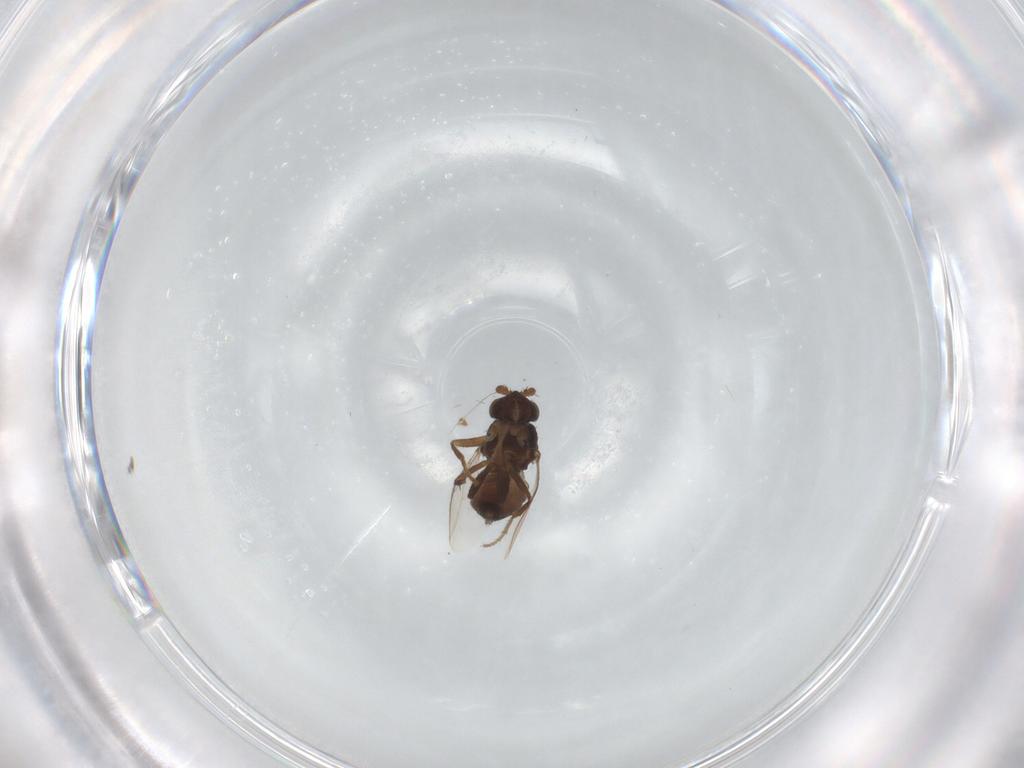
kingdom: Animalia
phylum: Arthropoda
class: Insecta
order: Diptera
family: Sphaeroceridae
